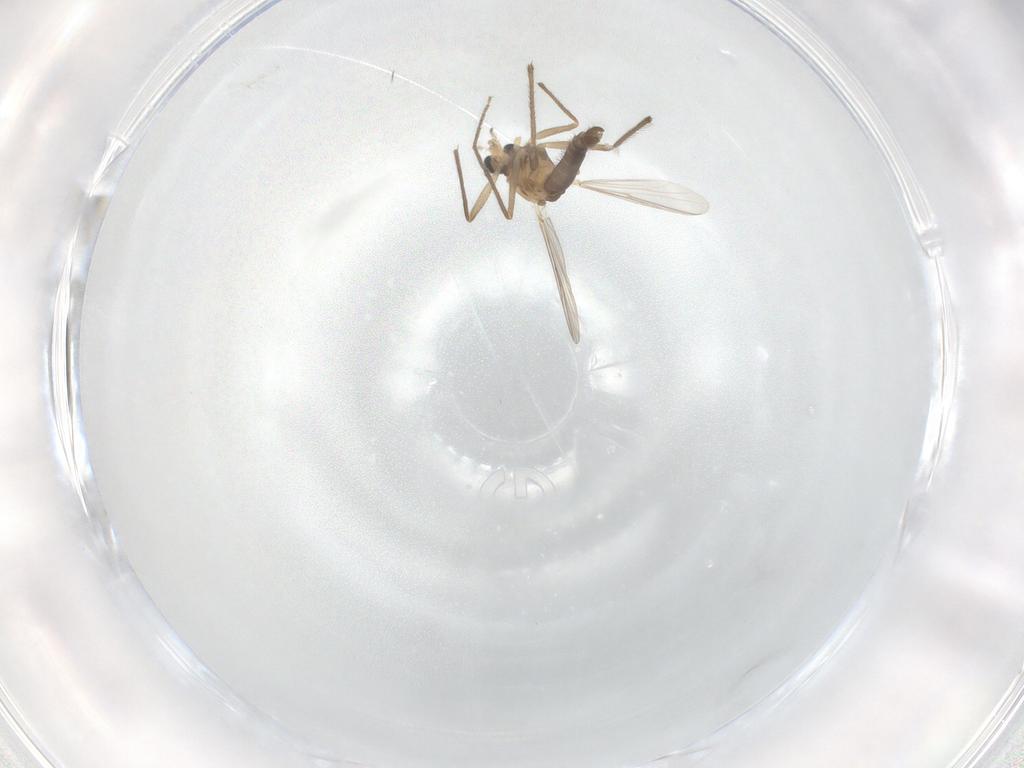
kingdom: Animalia
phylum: Arthropoda
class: Insecta
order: Diptera
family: Chironomidae
